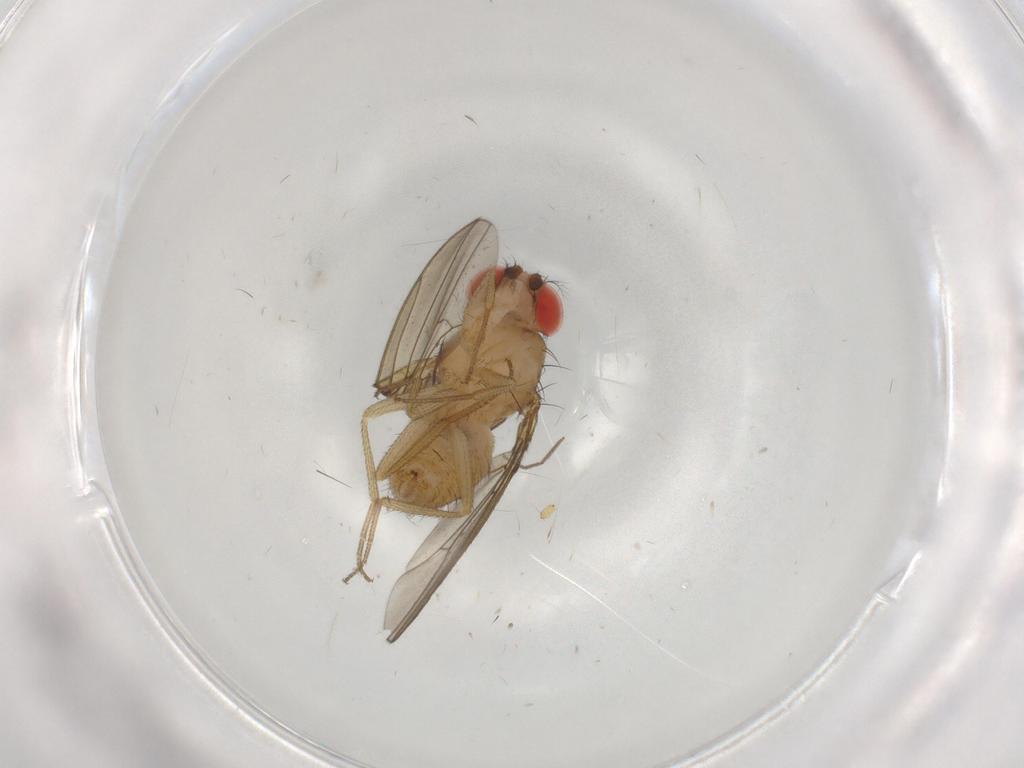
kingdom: Animalia
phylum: Arthropoda
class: Insecta
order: Diptera
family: Drosophilidae
